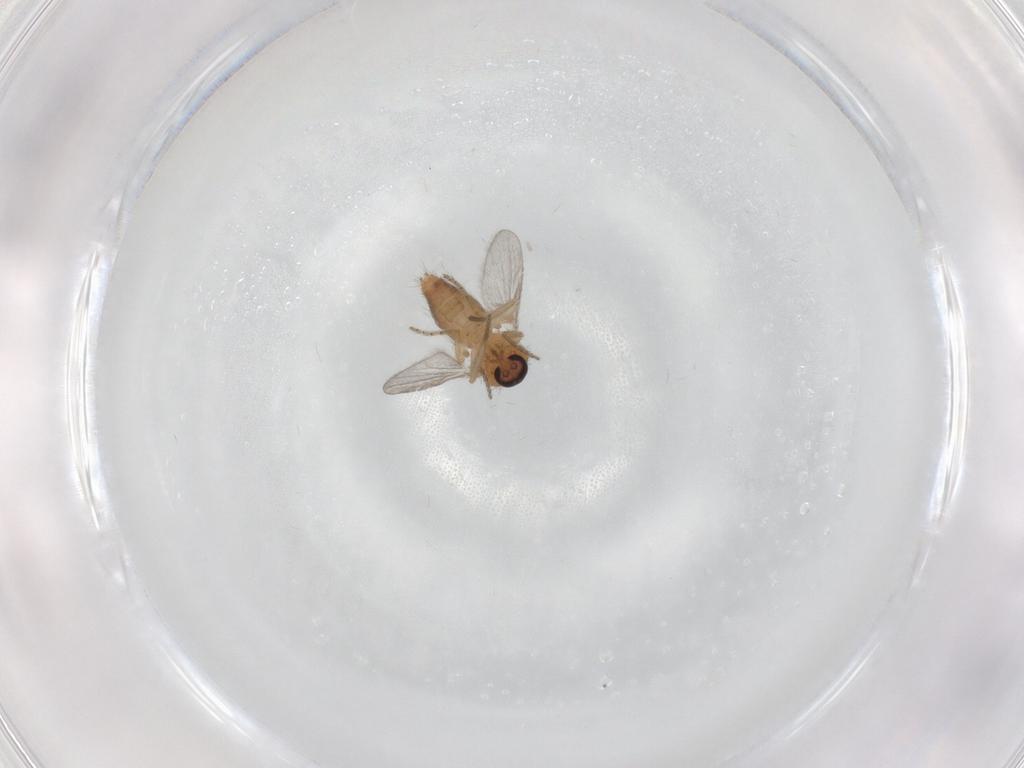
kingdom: Animalia
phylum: Arthropoda
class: Insecta
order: Diptera
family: Ceratopogonidae
